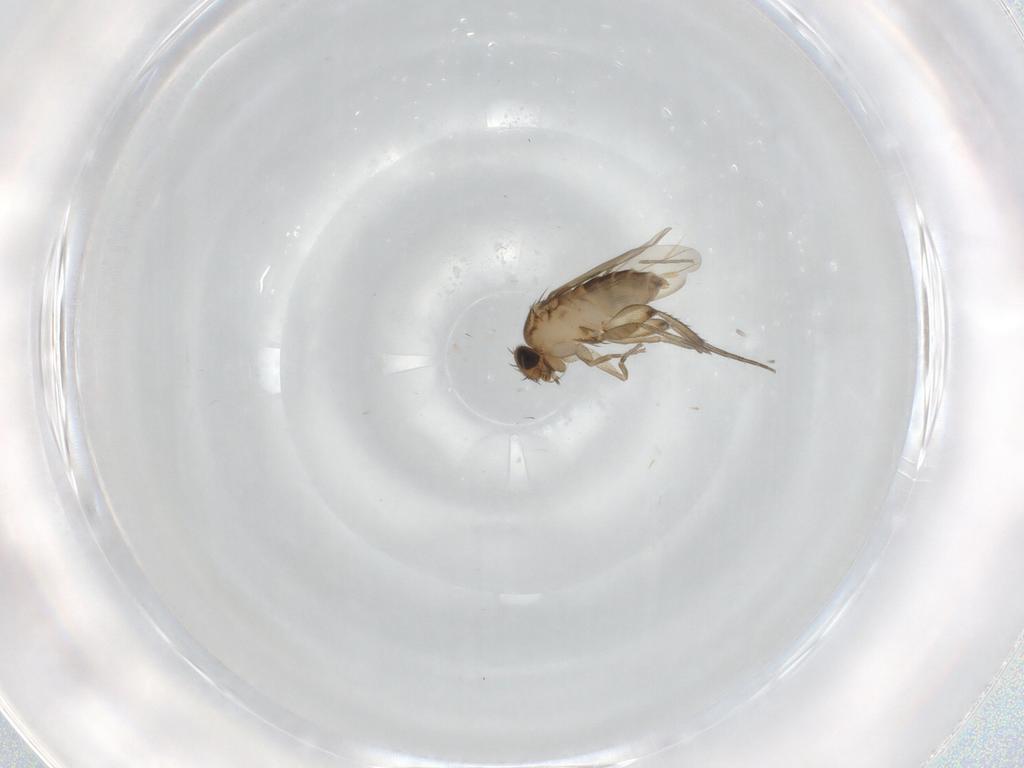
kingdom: Animalia
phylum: Arthropoda
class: Insecta
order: Diptera
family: Phoridae
